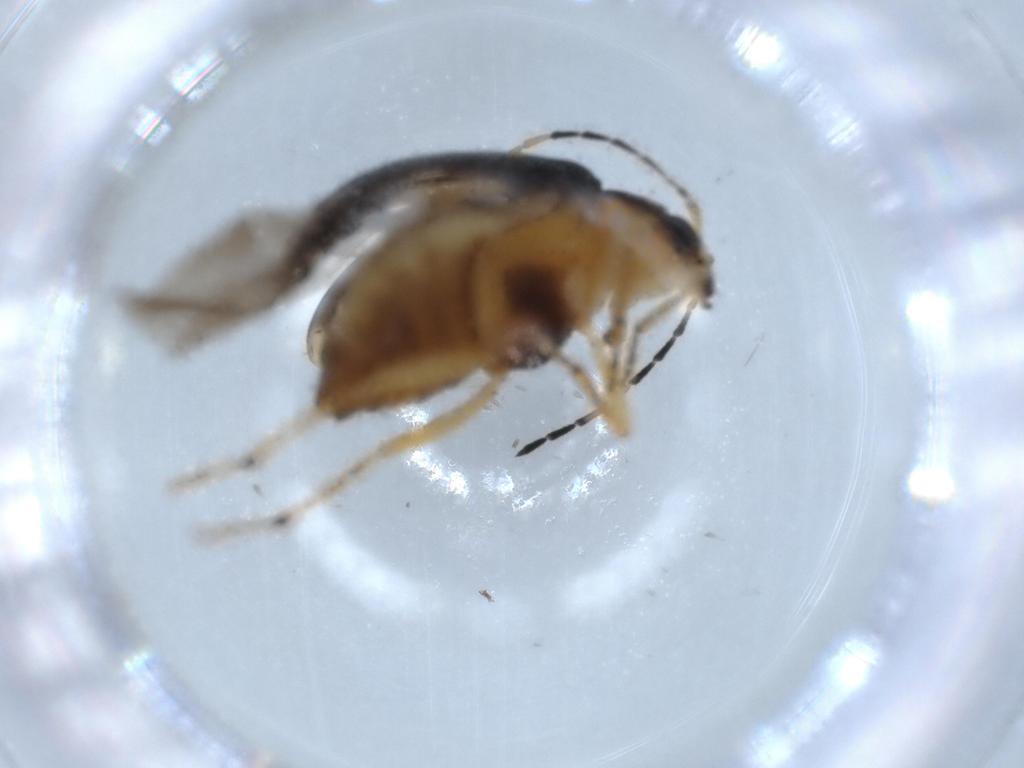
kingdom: Animalia
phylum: Arthropoda
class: Insecta
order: Coleoptera
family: Chrysomelidae
